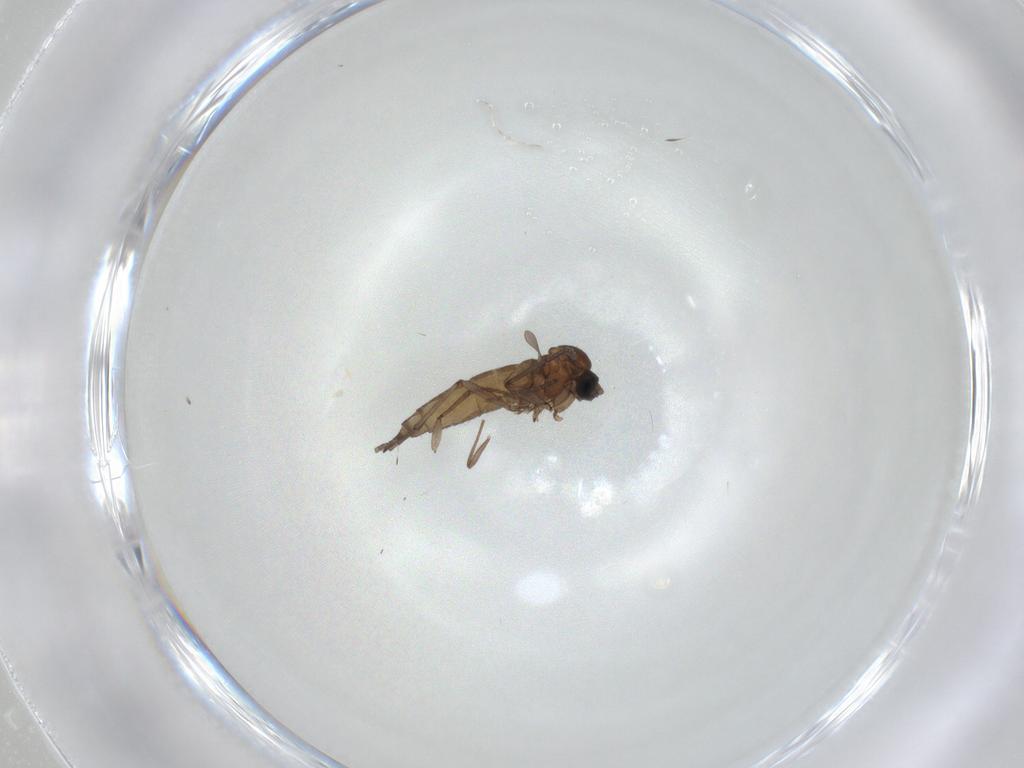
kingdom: Animalia
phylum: Arthropoda
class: Insecta
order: Diptera
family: Sciaridae
